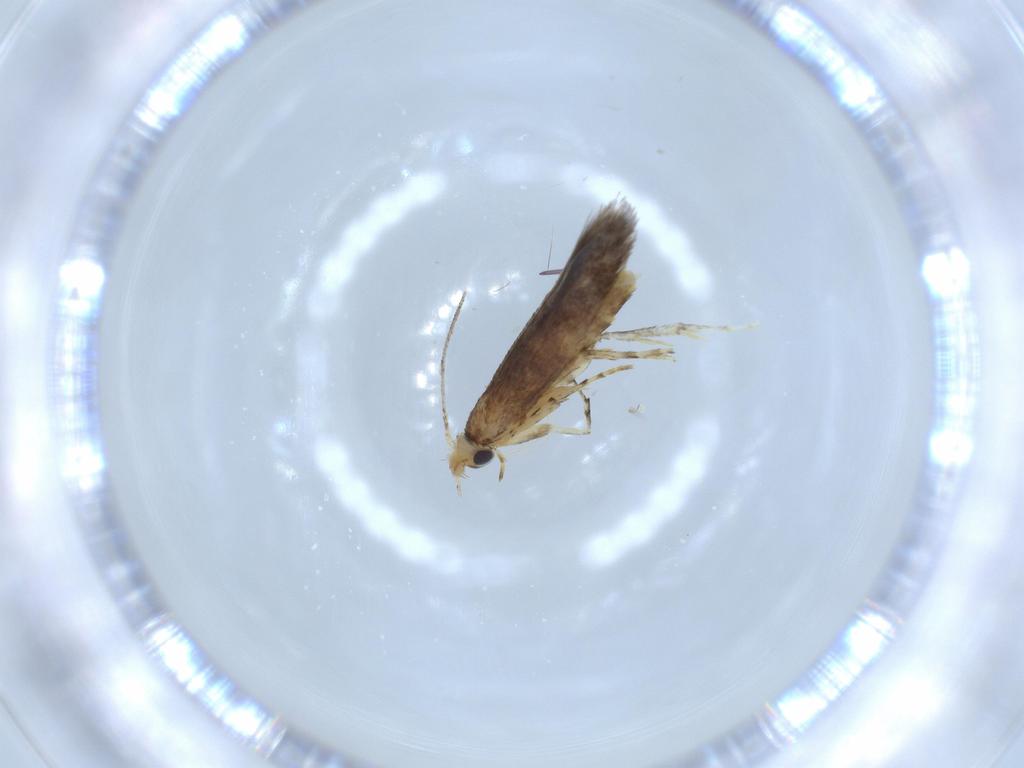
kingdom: Animalia
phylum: Arthropoda
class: Insecta
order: Lepidoptera
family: Argyresthiidae
